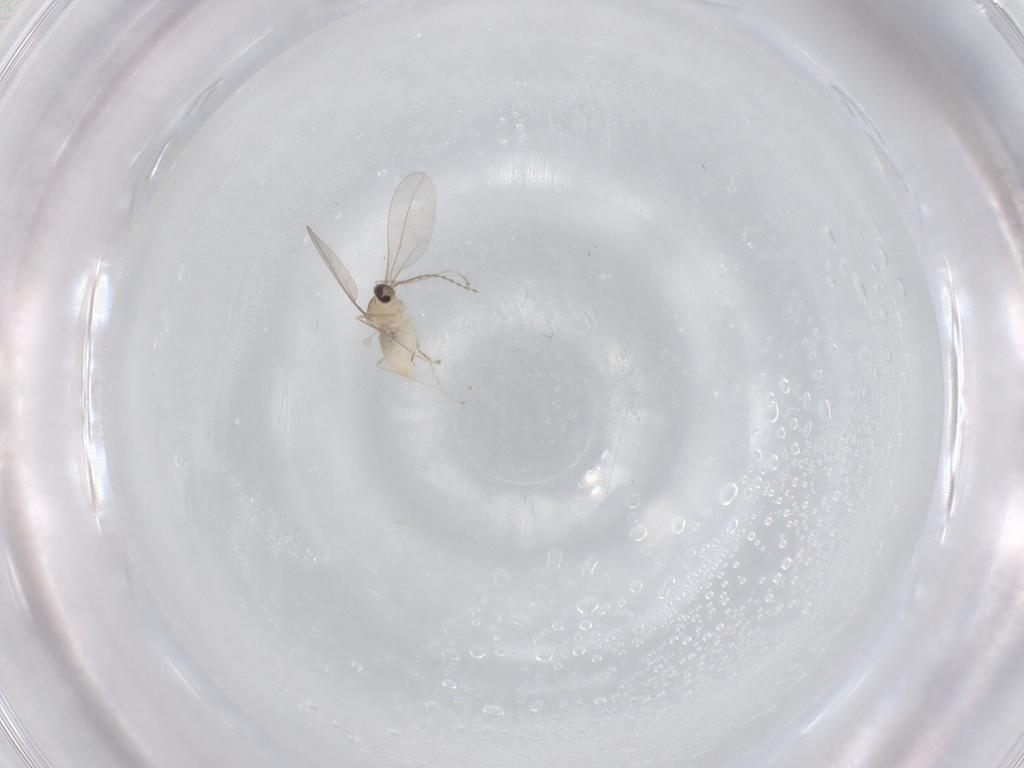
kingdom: Animalia
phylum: Arthropoda
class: Insecta
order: Diptera
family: Cecidomyiidae
